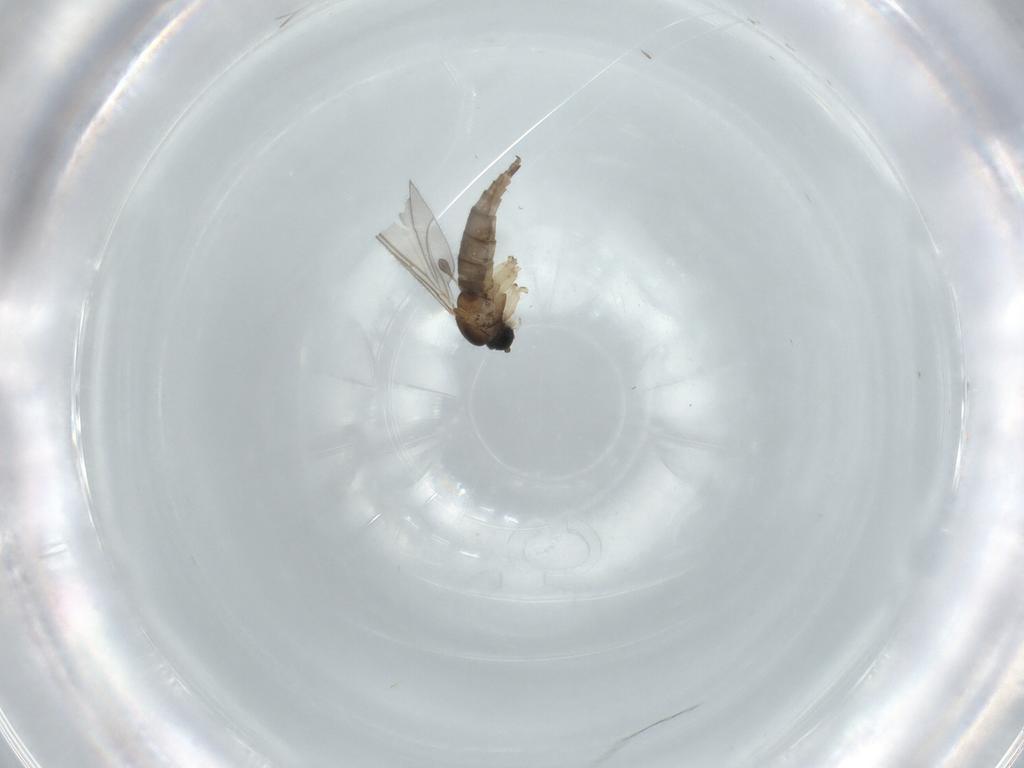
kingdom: Animalia
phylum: Arthropoda
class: Insecta
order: Diptera
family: Sciaridae
